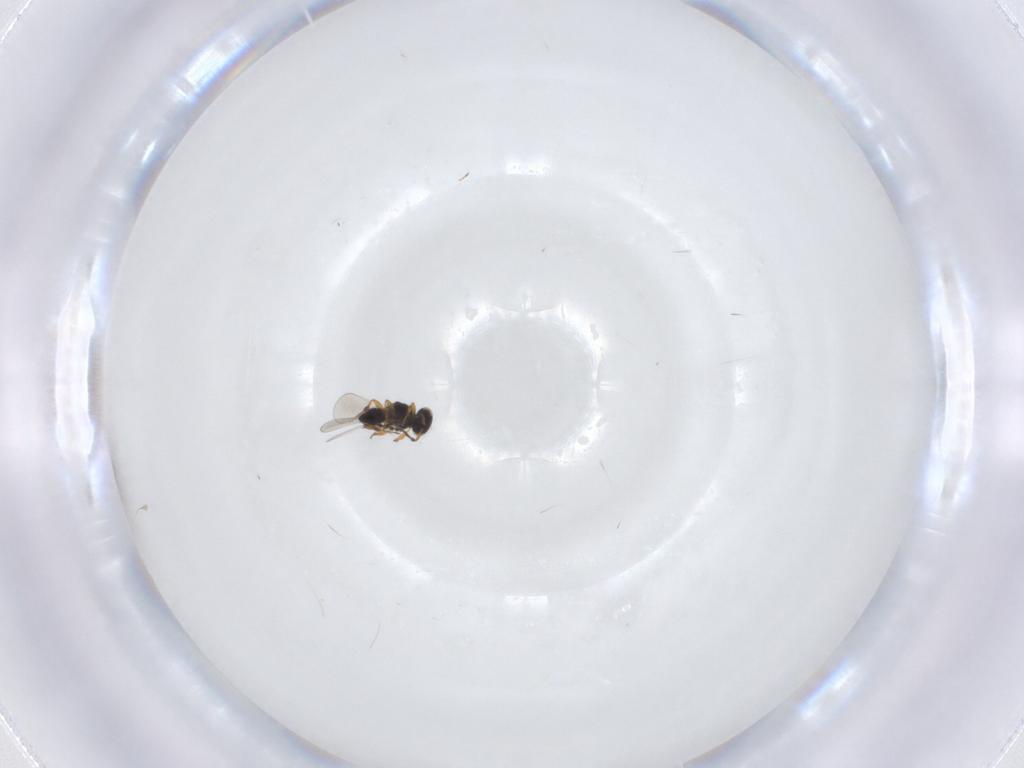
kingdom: Animalia
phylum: Arthropoda
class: Insecta
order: Hymenoptera
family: Platygastridae
